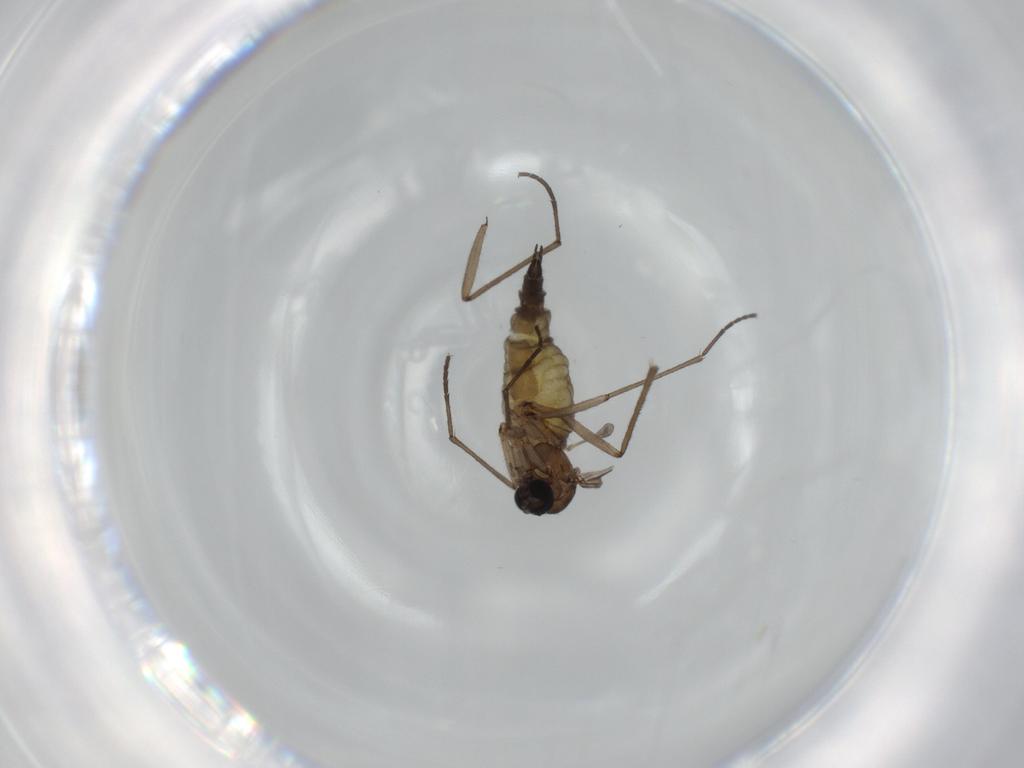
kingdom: Animalia
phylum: Arthropoda
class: Insecta
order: Diptera
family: Sciaridae
